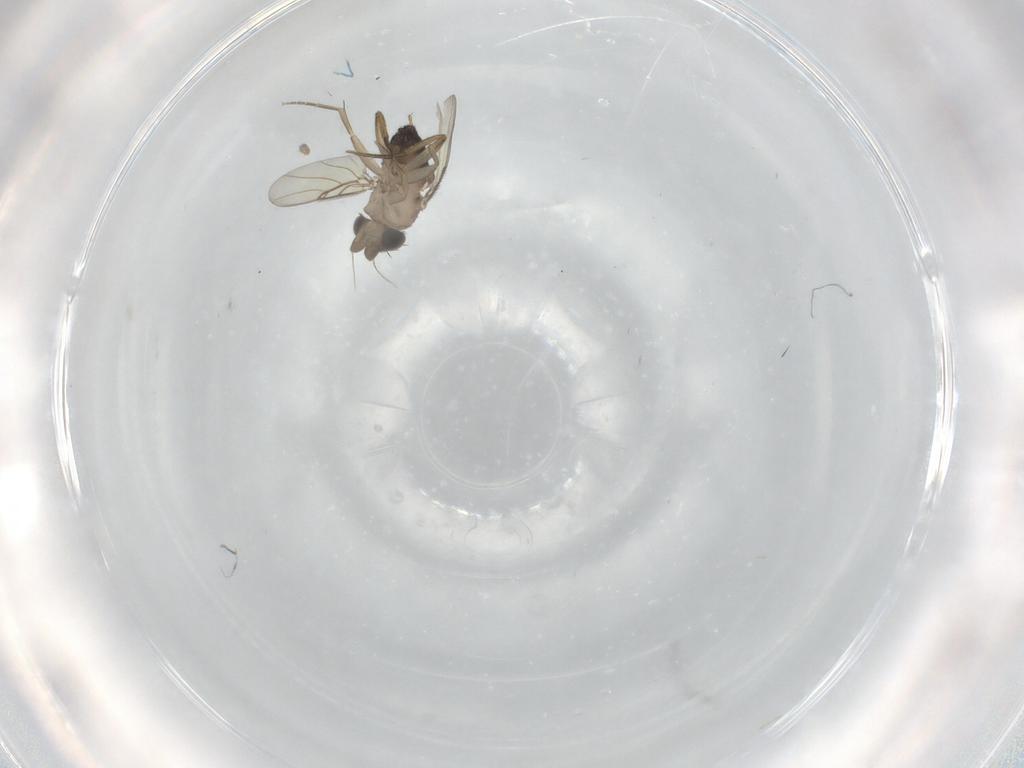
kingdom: Animalia
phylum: Arthropoda
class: Insecta
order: Diptera
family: Phoridae
